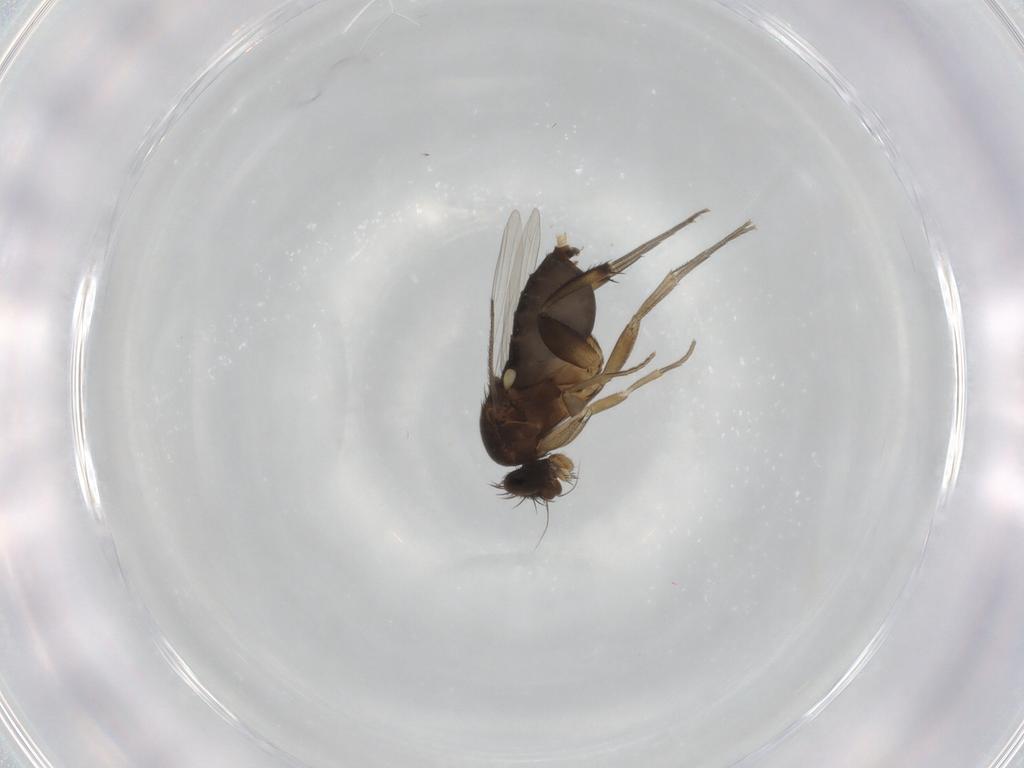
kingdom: Animalia
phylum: Arthropoda
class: Insecta
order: Diptera
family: Phoridae
